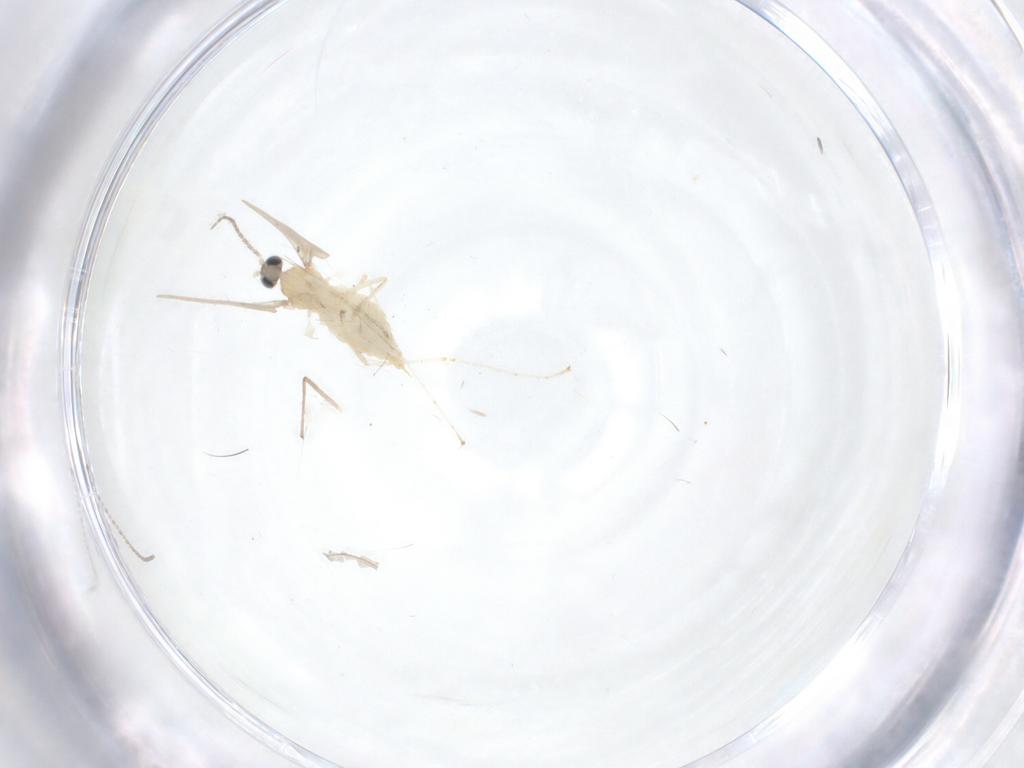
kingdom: Animalia
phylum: Arthropoda
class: Insecta
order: Diptera
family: Cecidomyiidae
